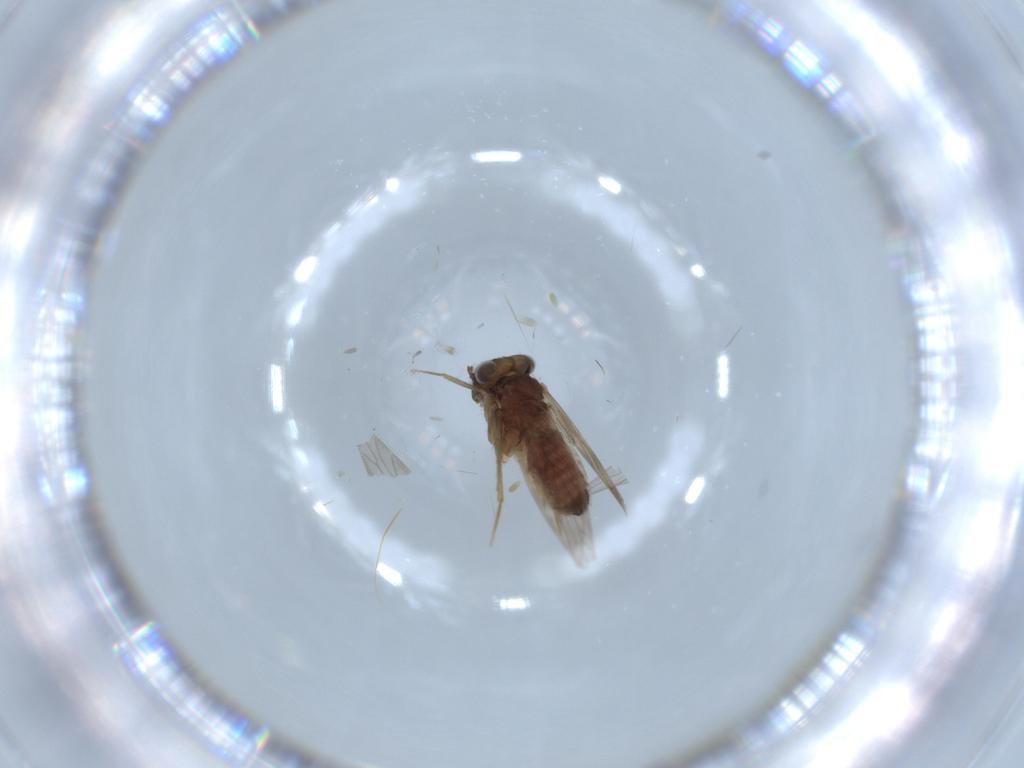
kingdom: Animalia
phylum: Arthropoda
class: Insecta
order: Psocodea
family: Lepidopsocidae
